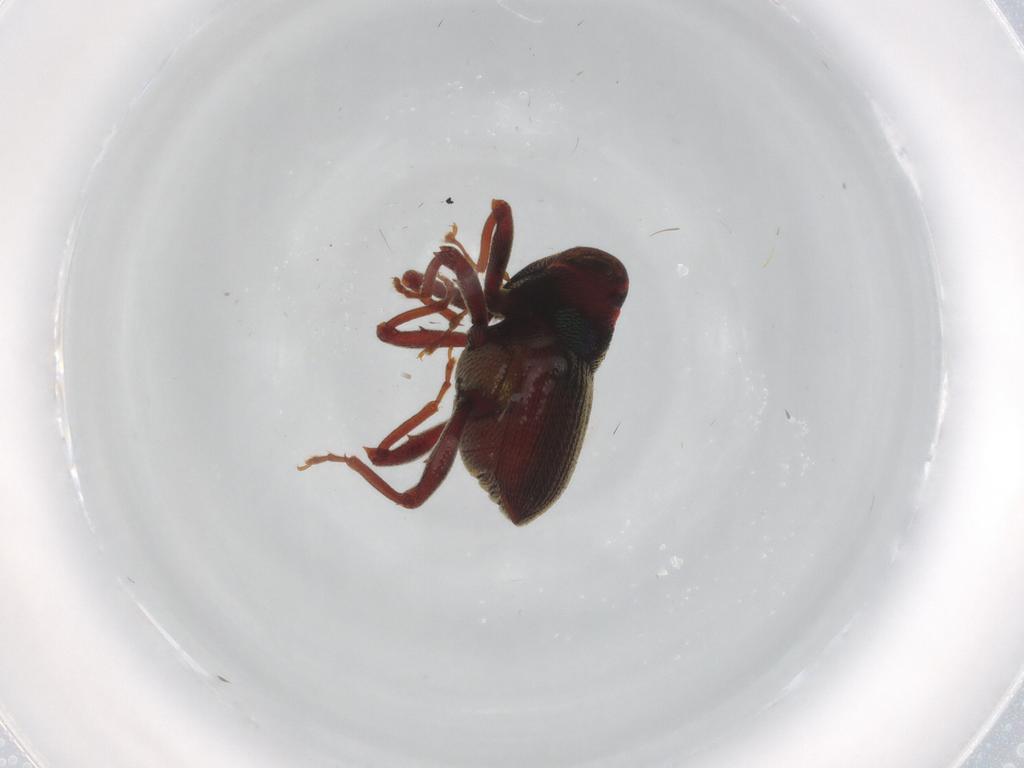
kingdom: Animalia
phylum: Arthropoda
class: Insecta
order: Coleoptera
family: Curculionidae
